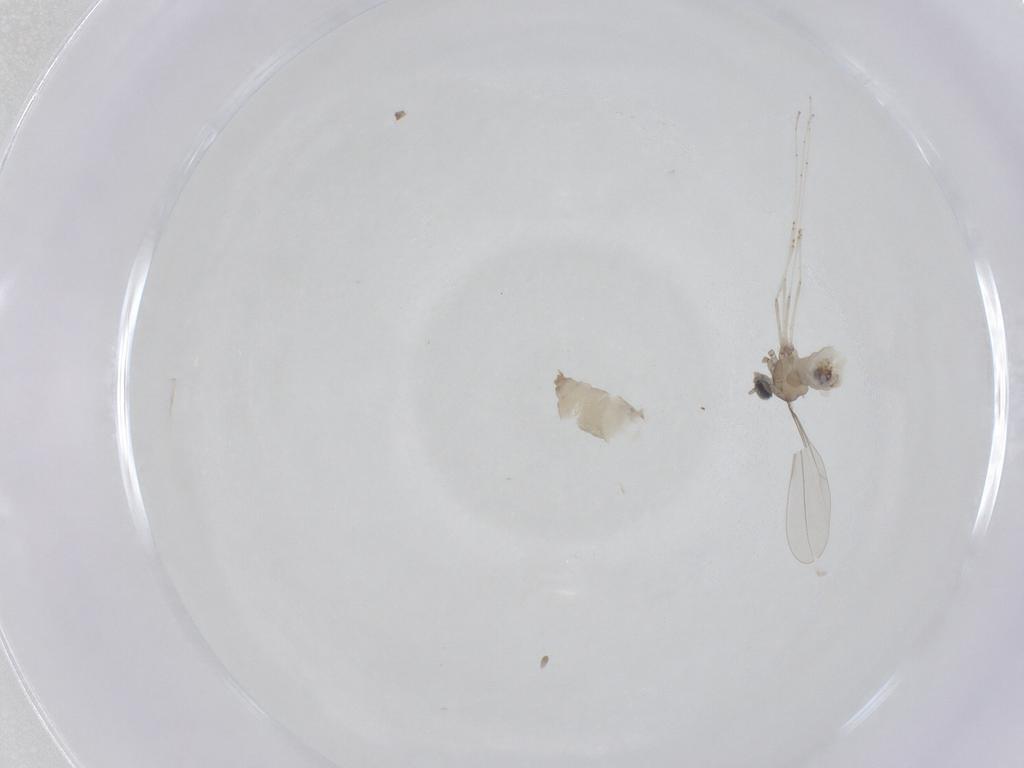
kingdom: Animalia
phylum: Arthropoda
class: Insecta
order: Diptera
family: Cecidomyiidae
